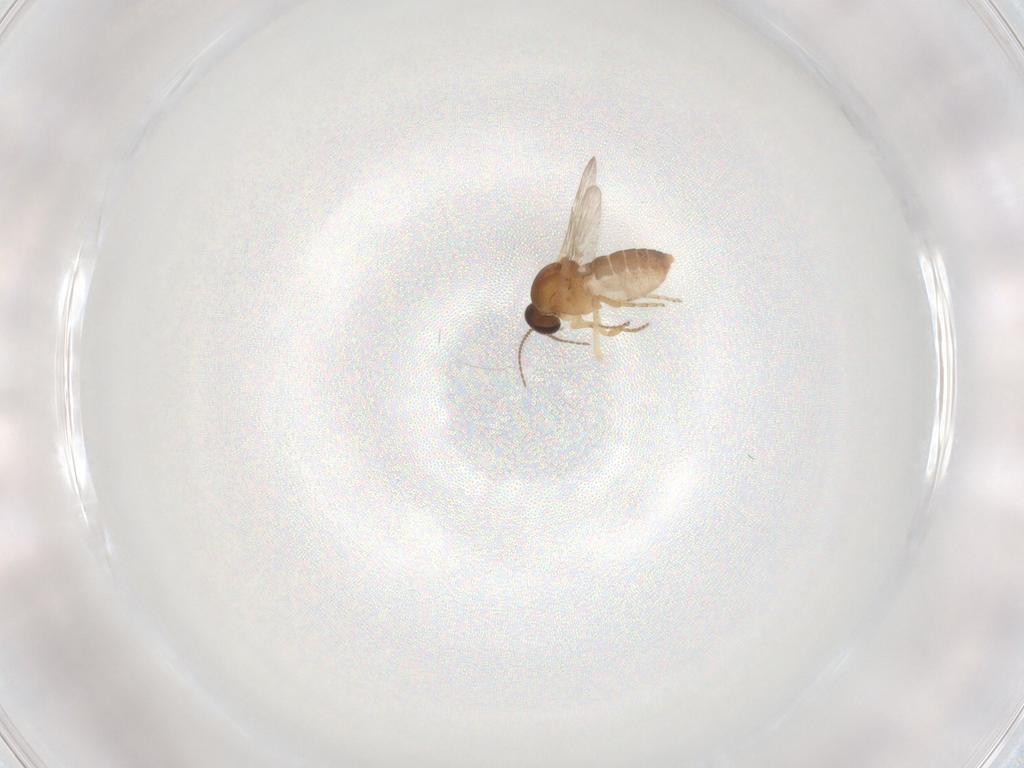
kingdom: Animalia
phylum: Arthropoda
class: Insecta
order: Diptera
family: Ceratopogonidae
